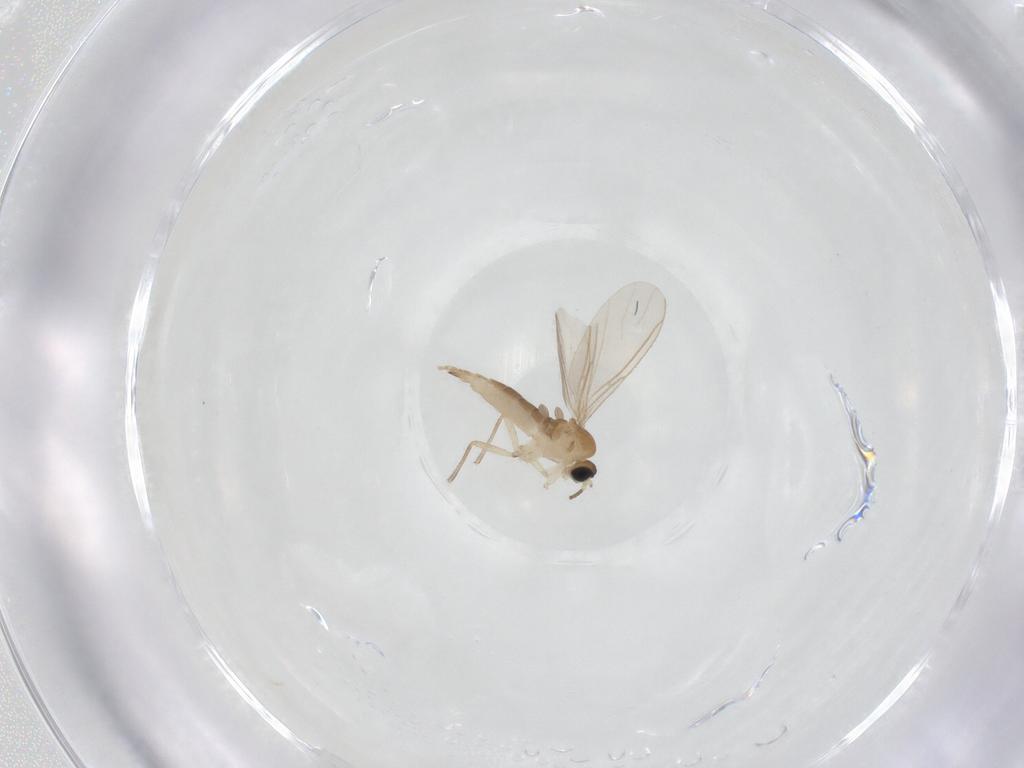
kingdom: Animalia
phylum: Arthropoda
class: Insecta
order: Diptera
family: Sciaridae
